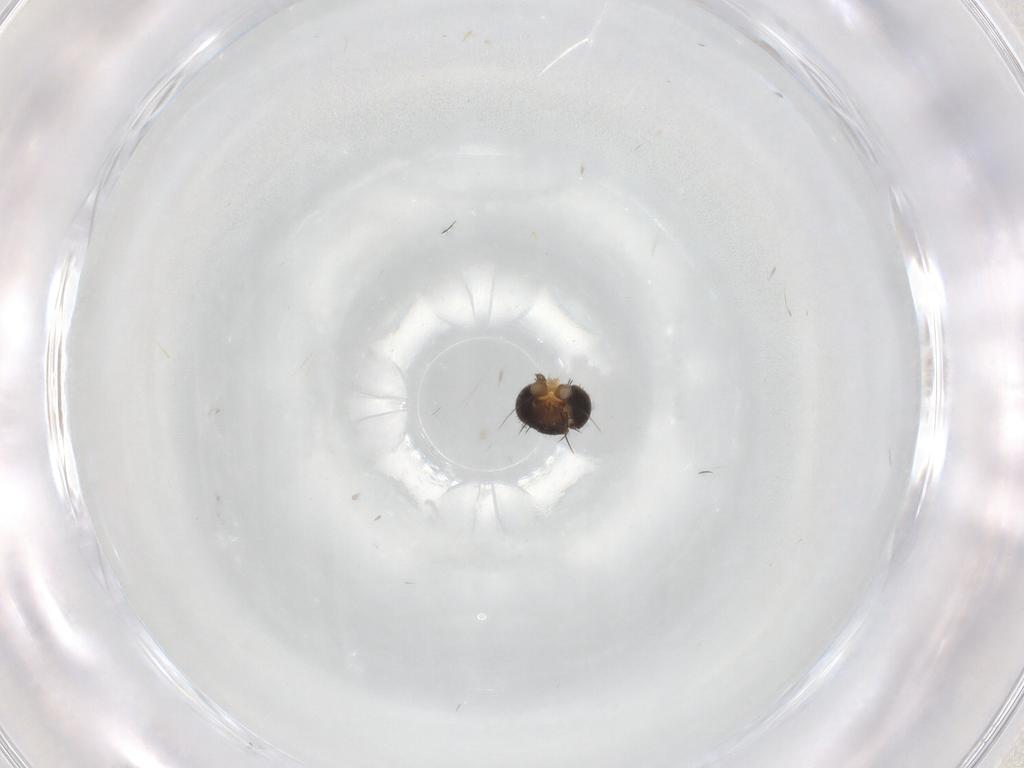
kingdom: Animalia
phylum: Arthropoda
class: Insecta
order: Diptera
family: Phoridae
